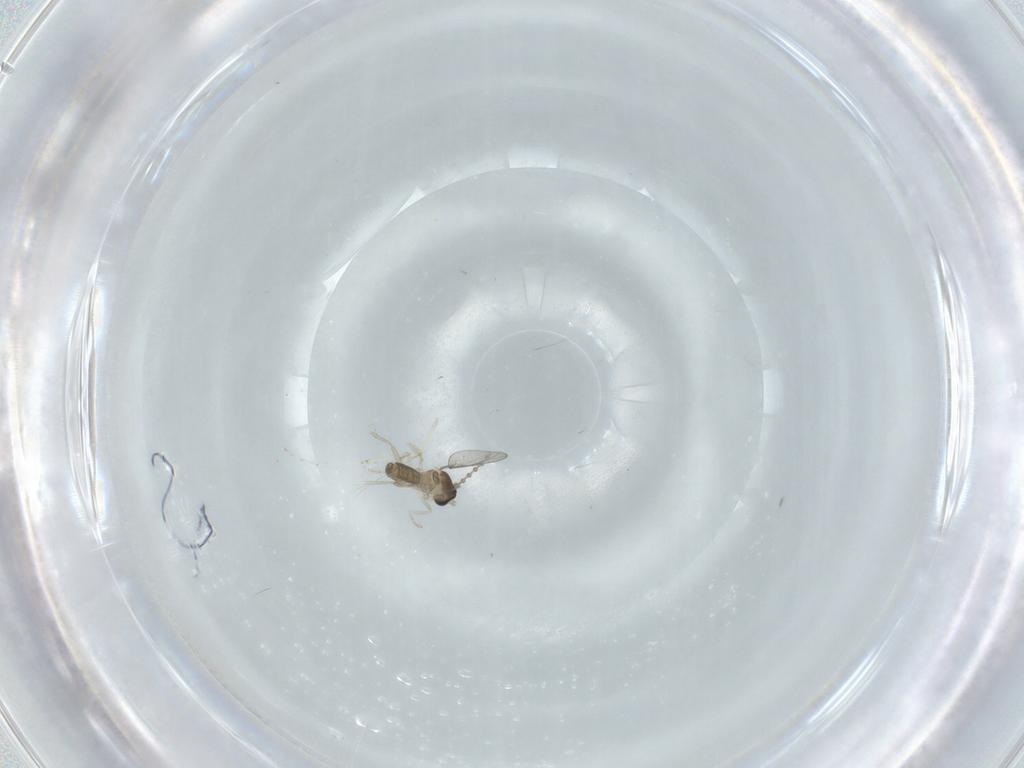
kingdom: Animalia
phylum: Arthropoda
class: Insecta
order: Diptera
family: Cecidomyiidae
